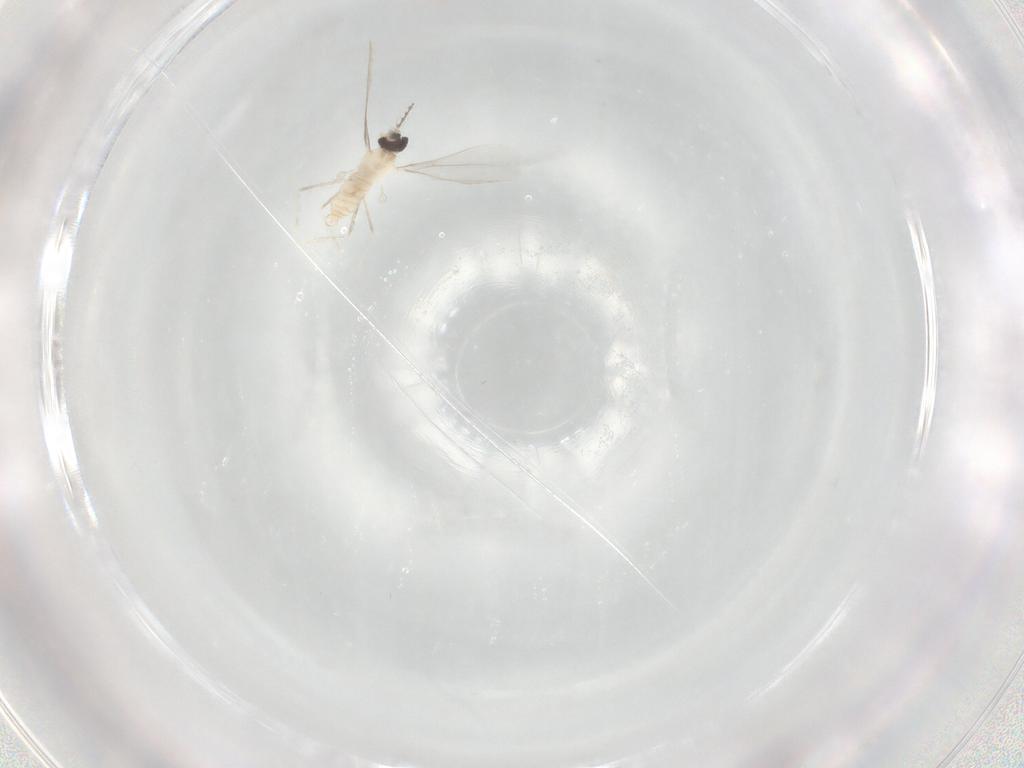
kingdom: Animalia
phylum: Arthropoda
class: Insecta
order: Diptera
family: Cecidomyiidae
